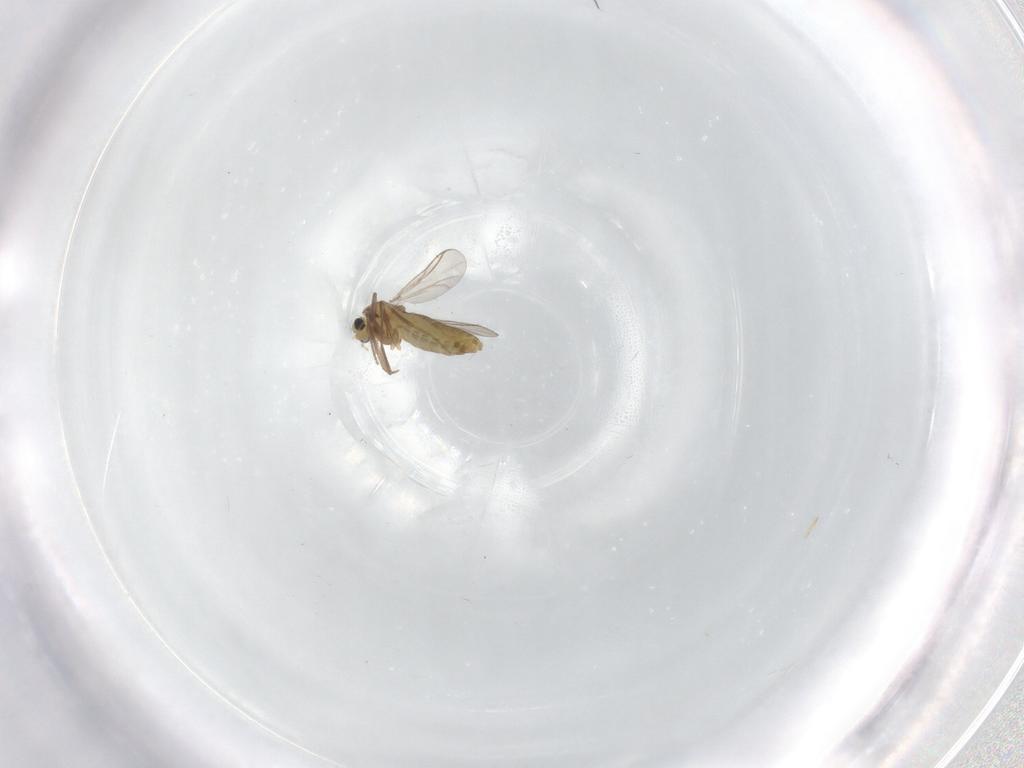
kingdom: Animalia
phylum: Arthropoda
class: Insecta
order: Diptera
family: Chironomidae
